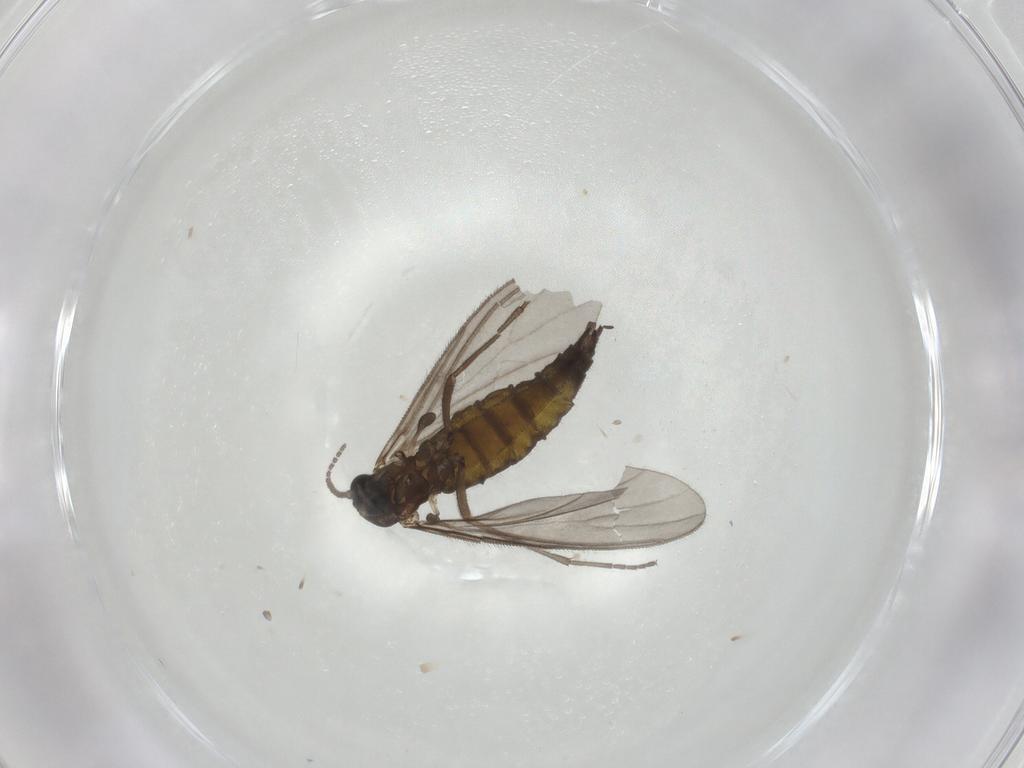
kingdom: Animalia
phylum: Arthropoda
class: Insecta
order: Diptera
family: Sciaridae
